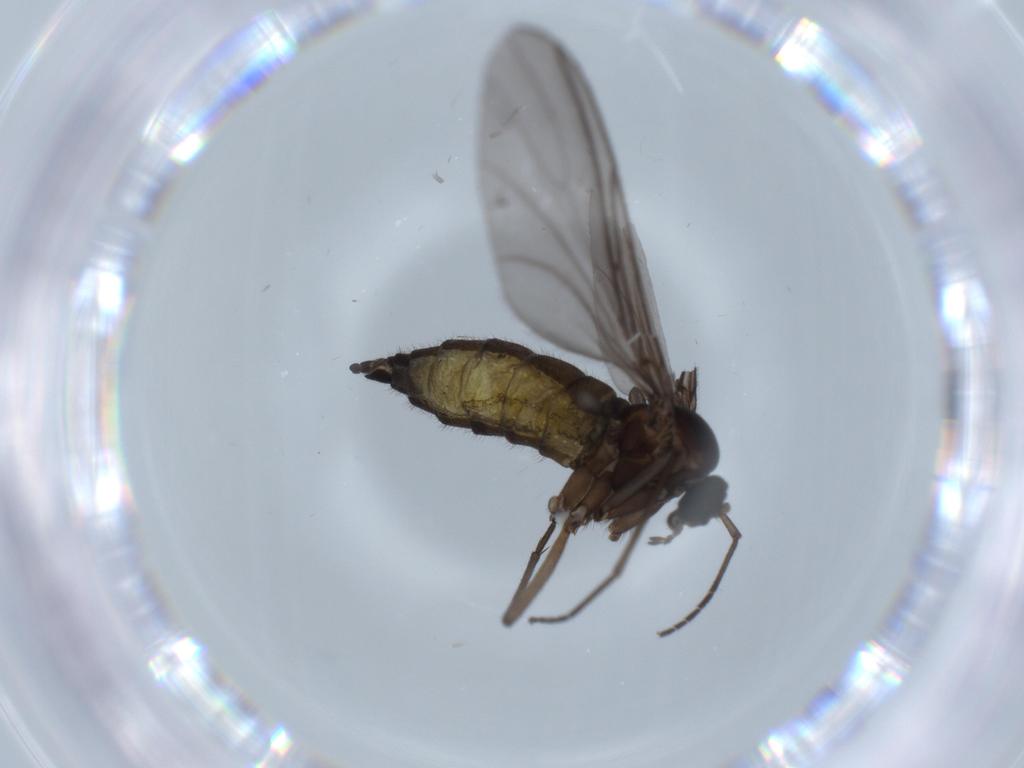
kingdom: Animalia
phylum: Arthropoda
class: Insecta
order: Diptera
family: Sciaridae
